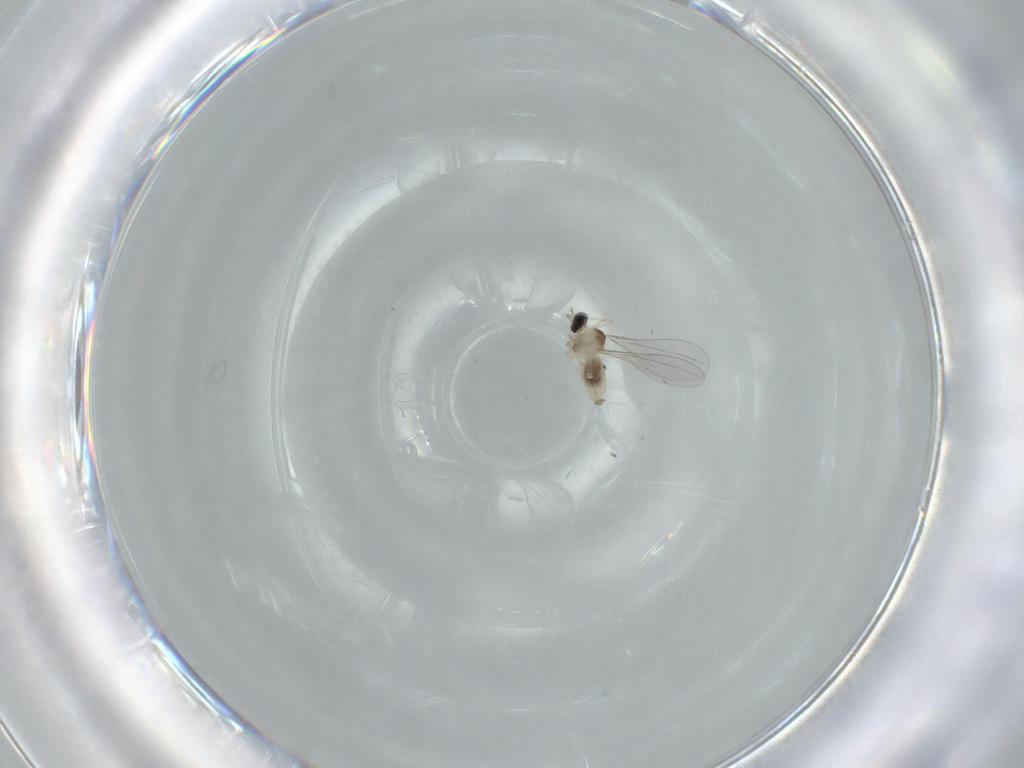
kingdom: Animalia
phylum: Arthropoda
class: Insecta
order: Diptera
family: Cecidomyiidae
